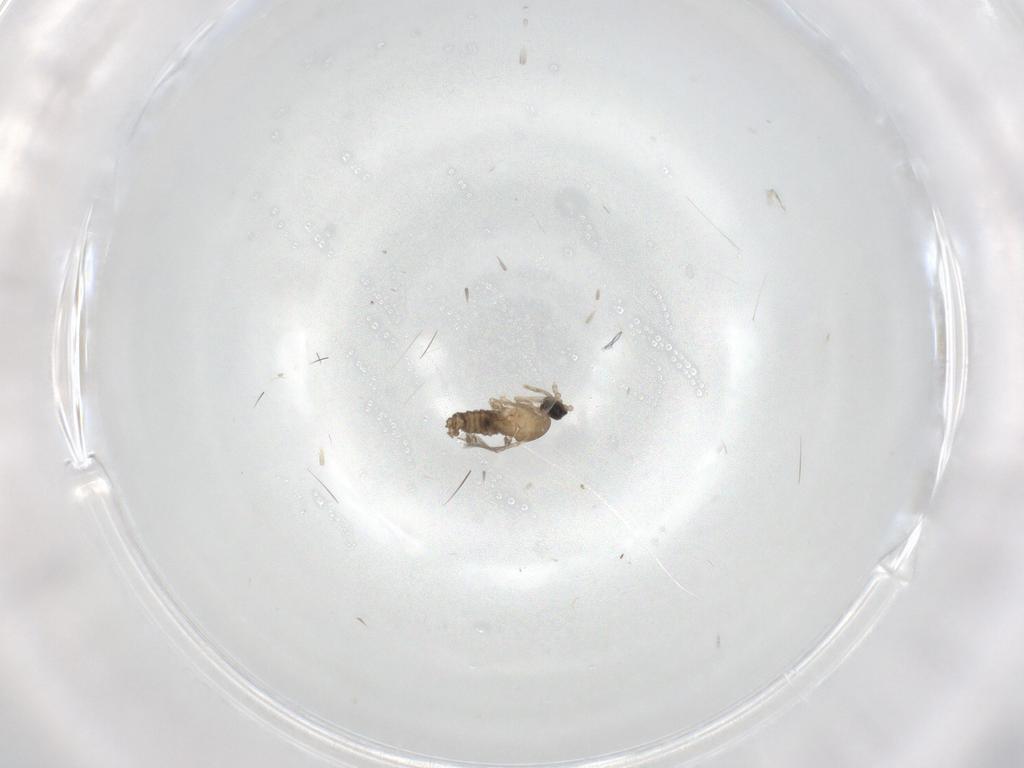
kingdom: Animalia
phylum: Arthropoda
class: Insecta
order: Diptera
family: Cecidomyiidae
